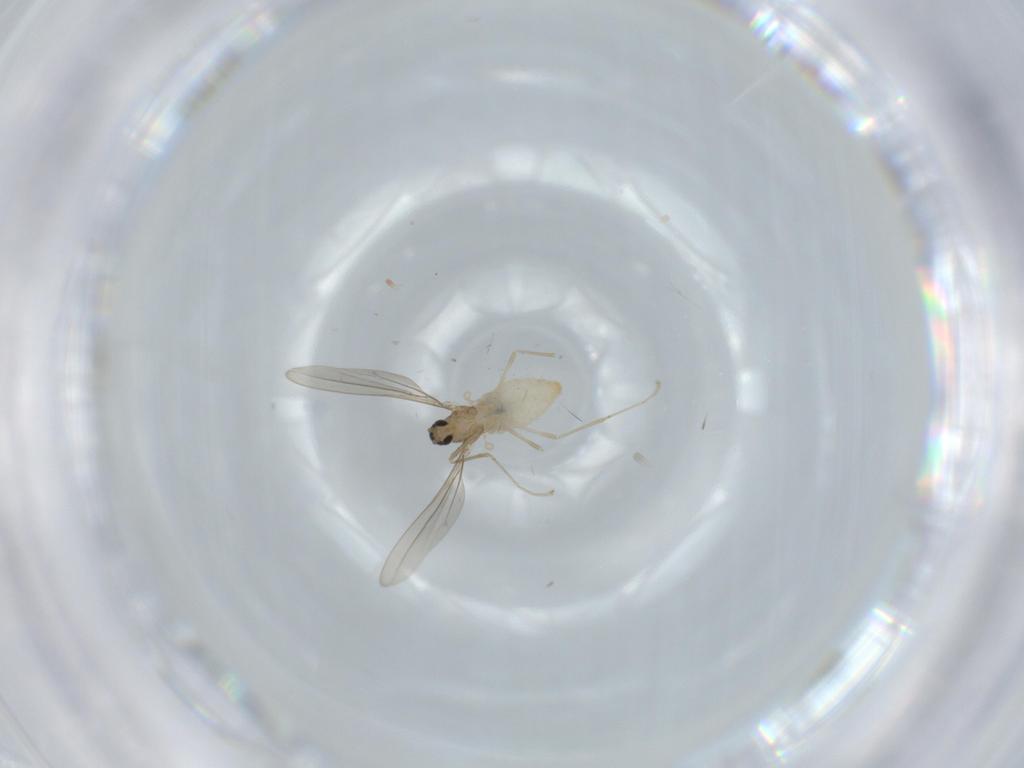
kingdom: Animalia
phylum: Arthropoda
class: Insecta
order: Diptera
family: Cecidomyiidae
